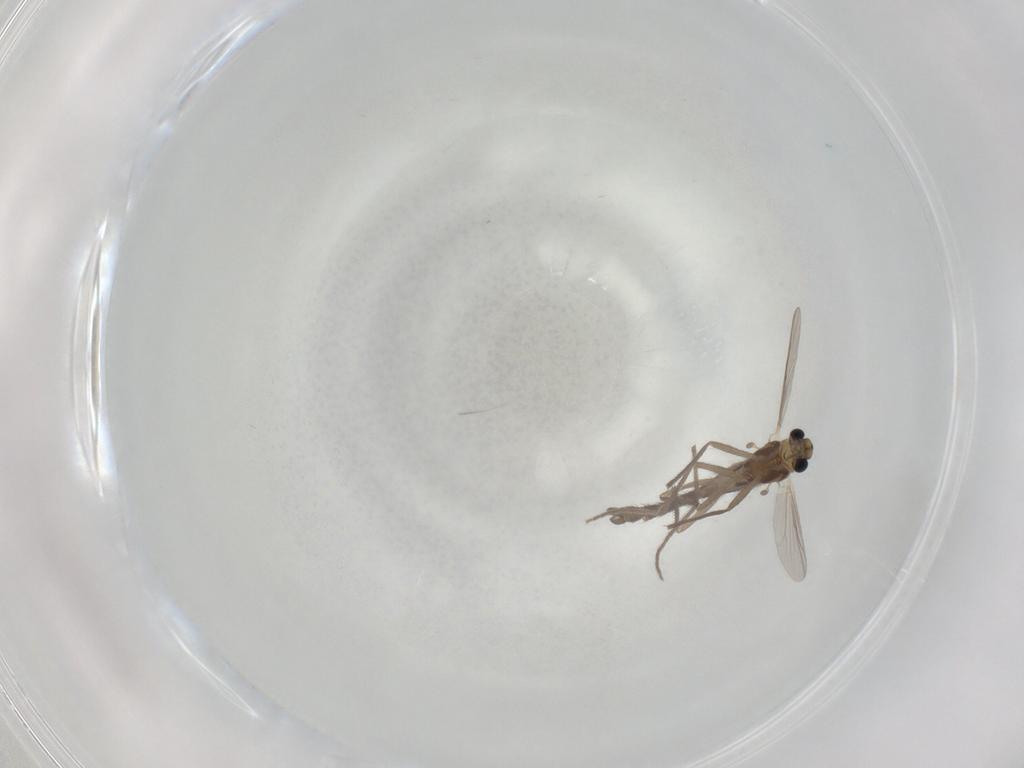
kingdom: Animalia
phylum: Arthropoda
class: Insecta
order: Diptera
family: Micropezidae
